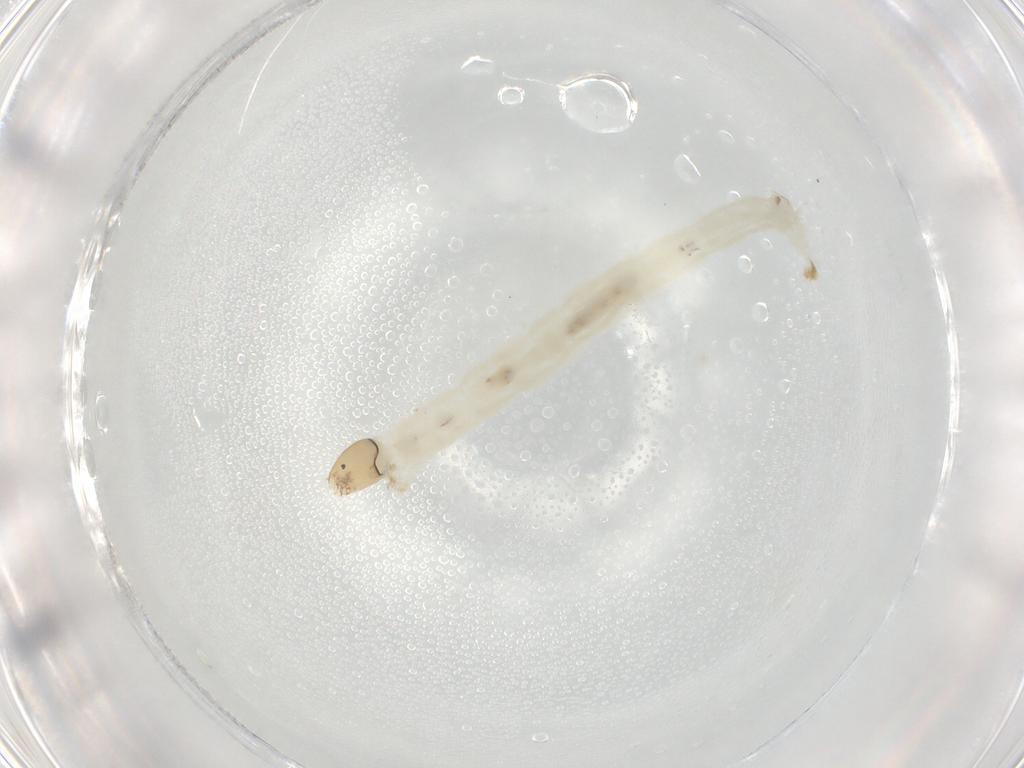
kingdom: Animalia
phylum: Arthropoda
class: Insecta
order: Diptera
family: Chironomidae
